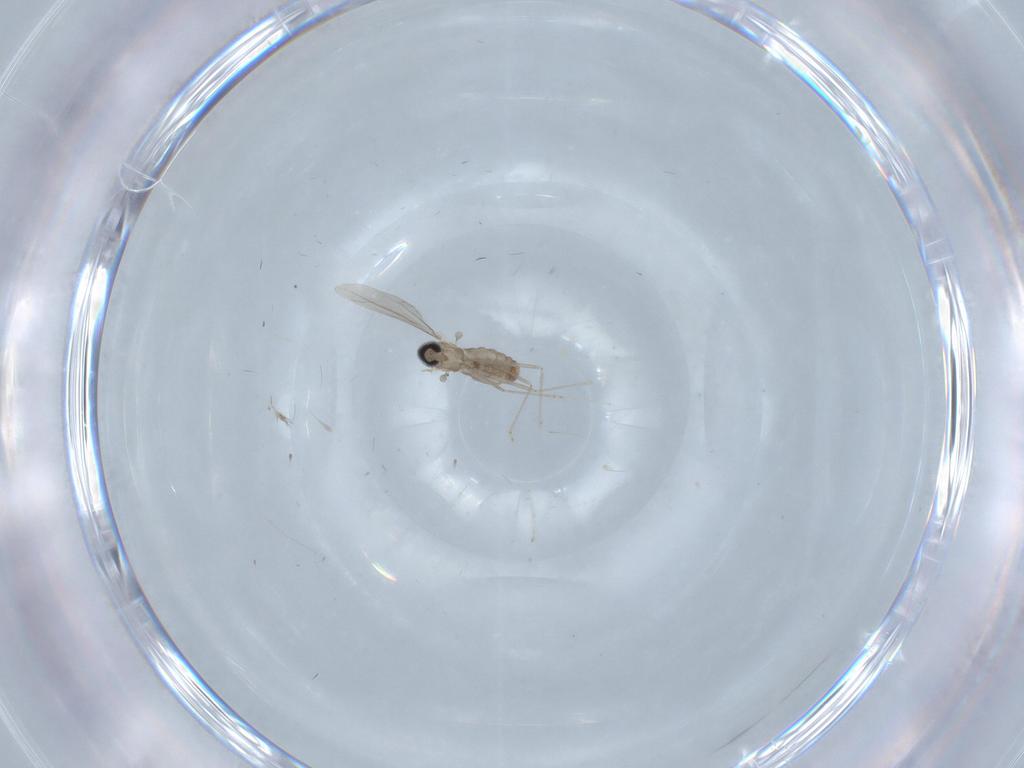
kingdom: Animalia
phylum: Arthropoda
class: Insecta
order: Diptera
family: Cecidomyiidae
